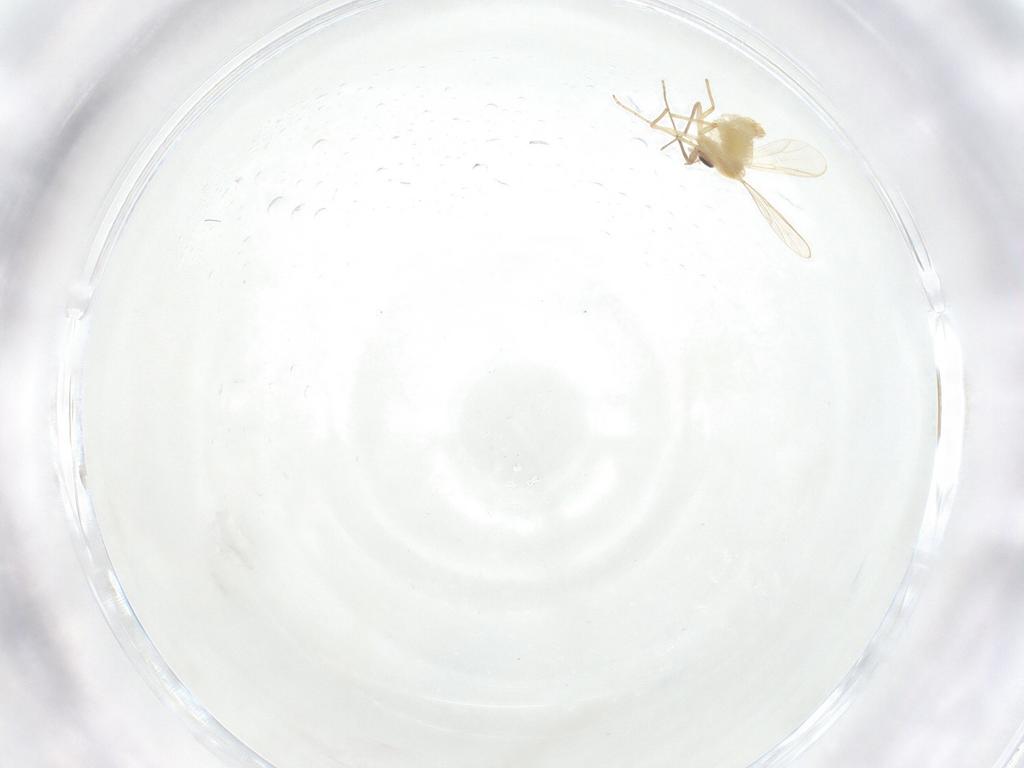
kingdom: Animalia
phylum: Arthropoda
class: Insecta
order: Diptera
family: Chironomidae
